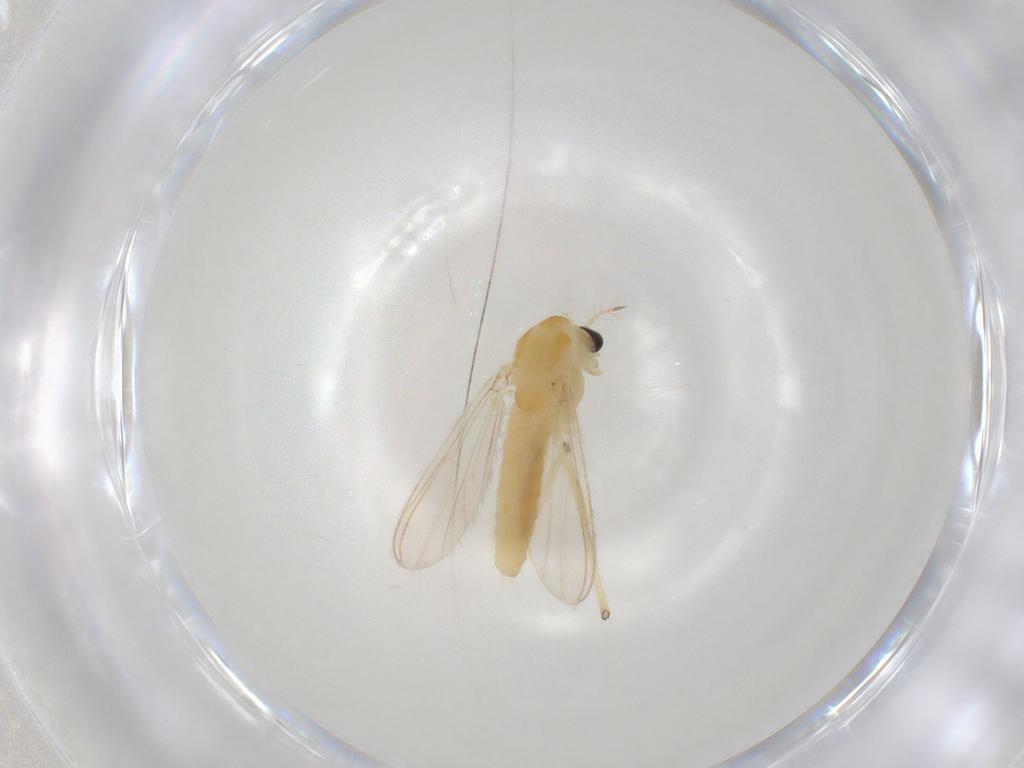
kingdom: Animalia
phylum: Arthropoda
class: Insecta
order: Diptera
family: Chironomidae
